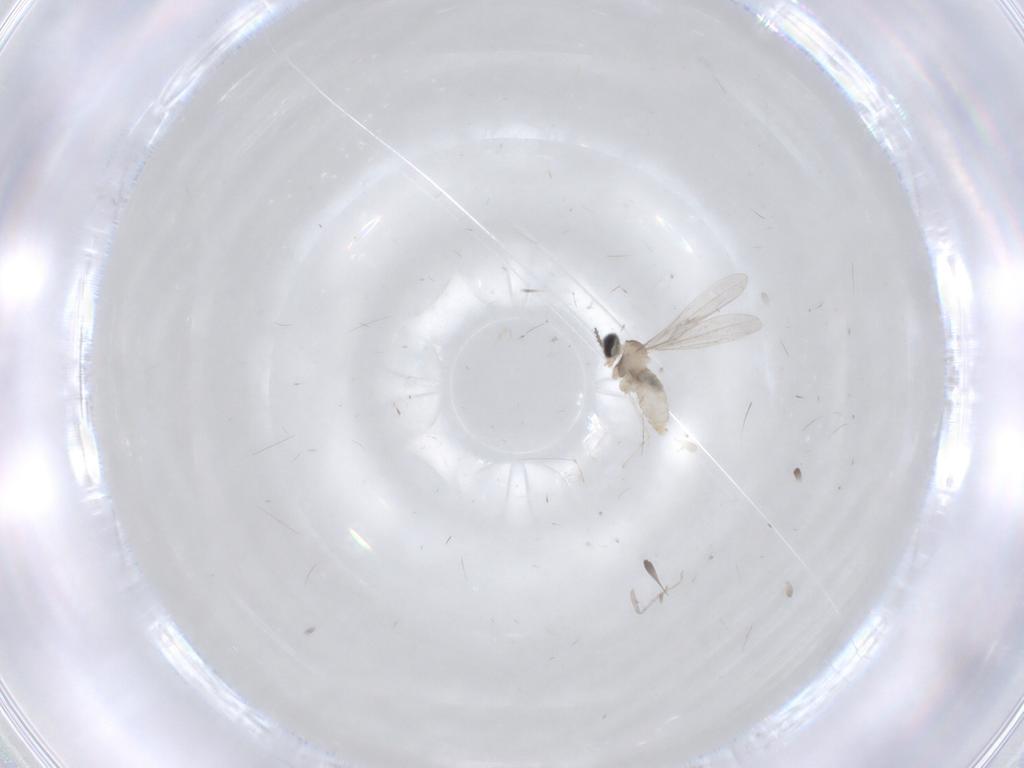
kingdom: Animalia
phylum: Arthropoda
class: Insecta
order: Diptera
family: Cecidomyiidae
